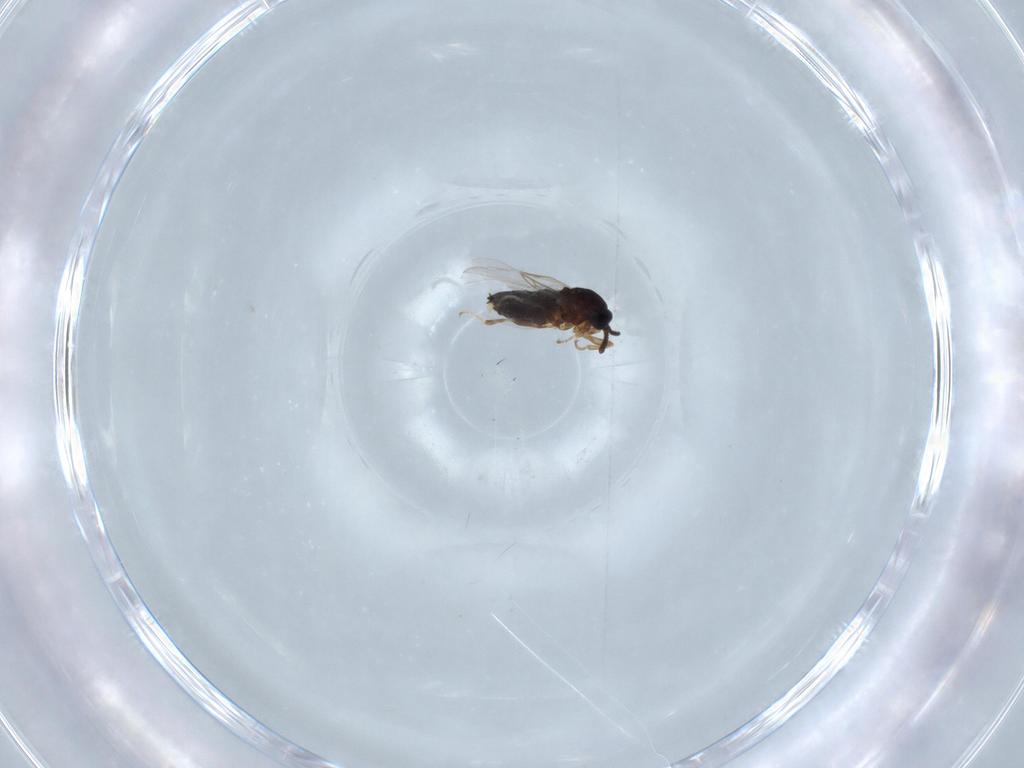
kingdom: Animalia
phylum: Arthropoda
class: Insecta
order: Diptera
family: Scatopsidae
